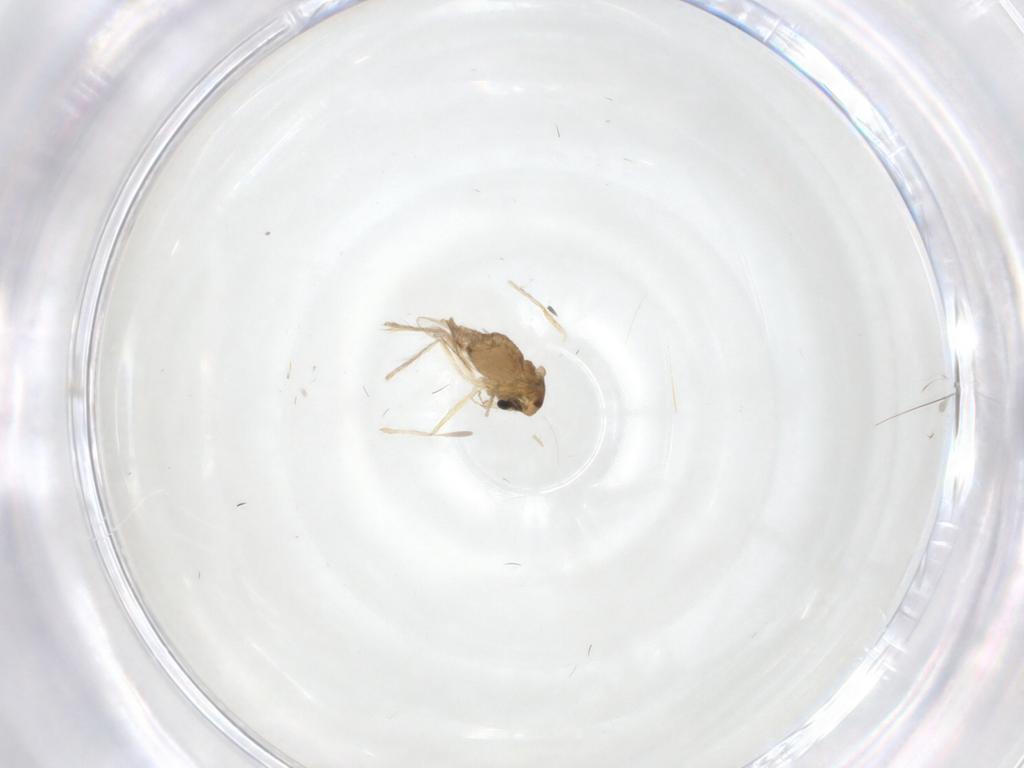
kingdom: Animalia
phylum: Arthropoda
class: Insecta
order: Diptera
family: Chironomidae
